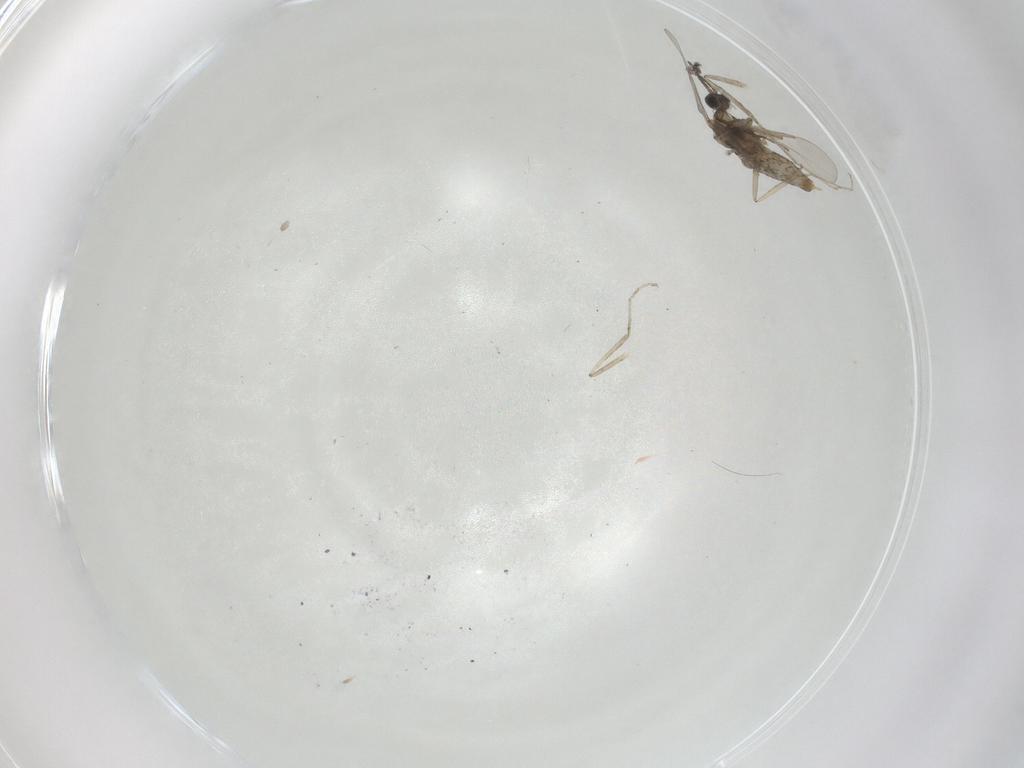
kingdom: Animalia
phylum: Arthropoda
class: Insecta
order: Diptera
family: Cecidomyiidae
